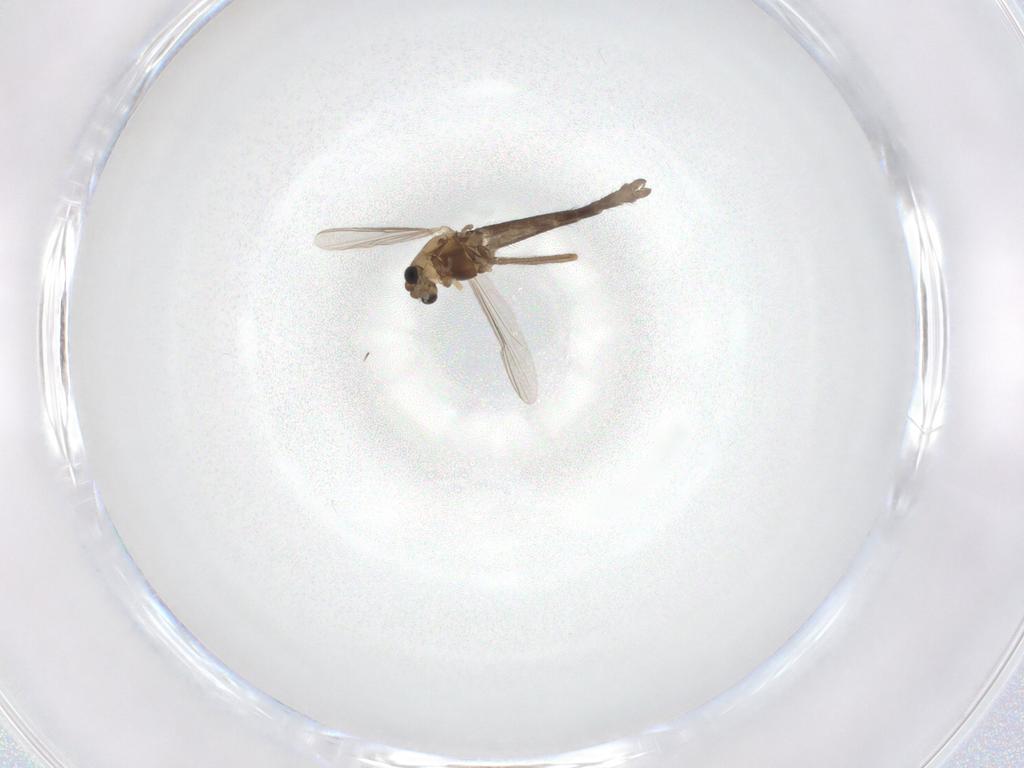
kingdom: Animalia
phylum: Arthropoda
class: Insecta
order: Diptera
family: Chironomidae
